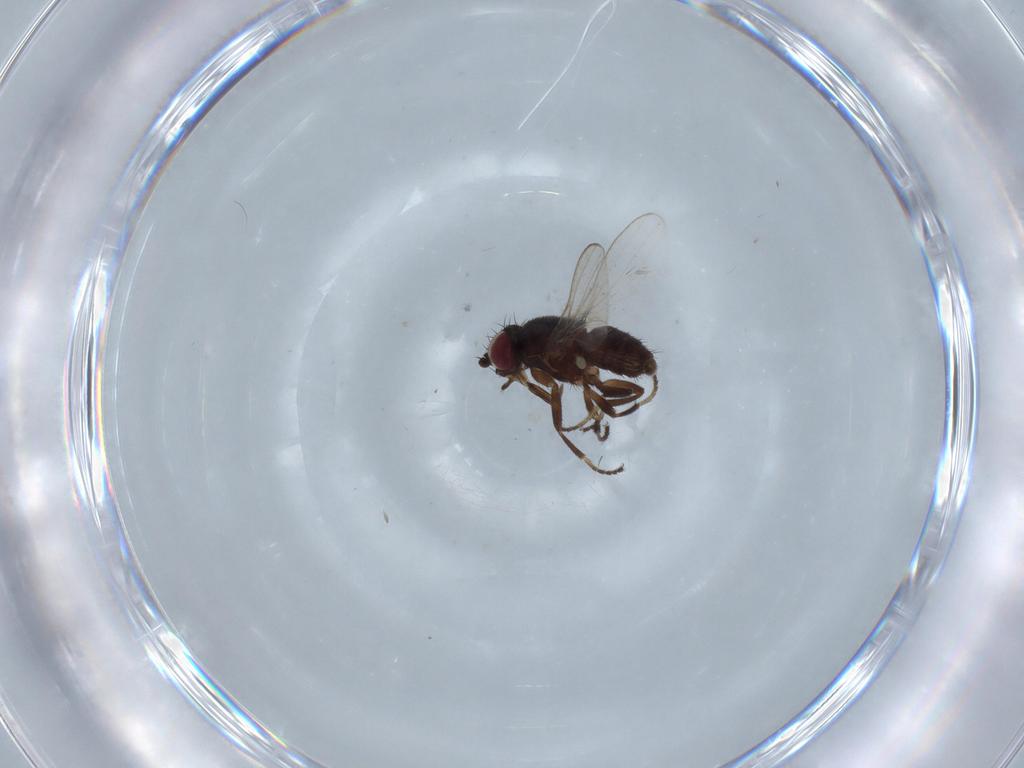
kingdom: Animalia
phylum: Arthropoda
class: Insecta
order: Diptera
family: Milichiidae
